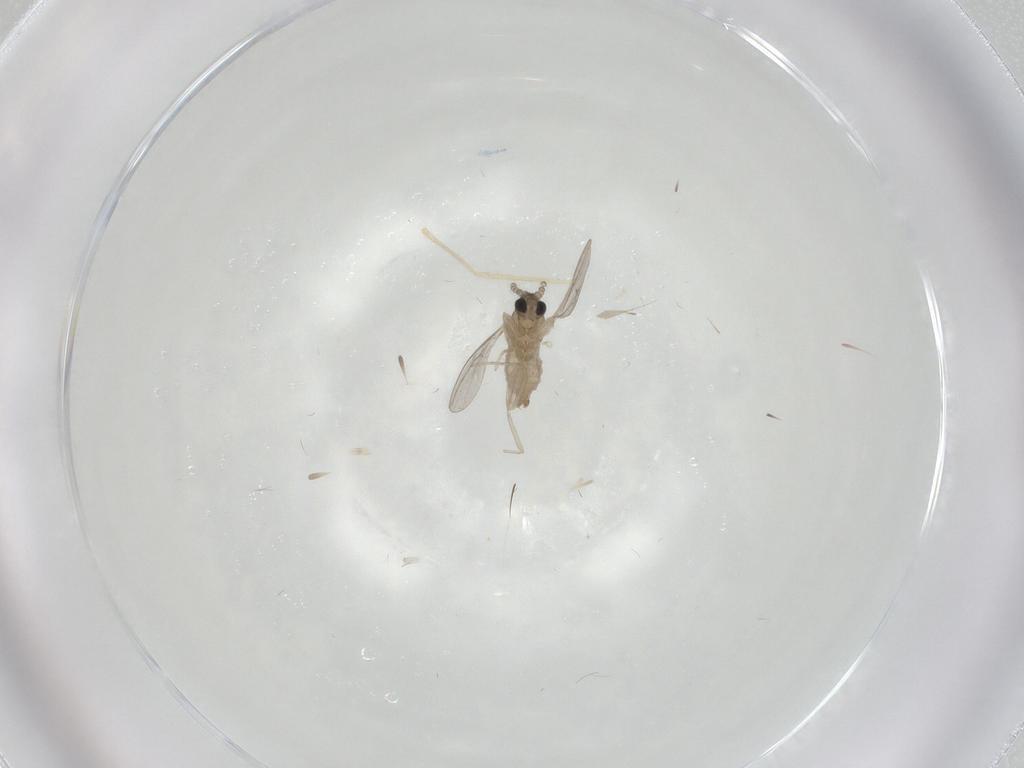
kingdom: Animalia
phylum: Arthropoda
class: Insecta
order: Diptera
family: Cecidomyiidae
